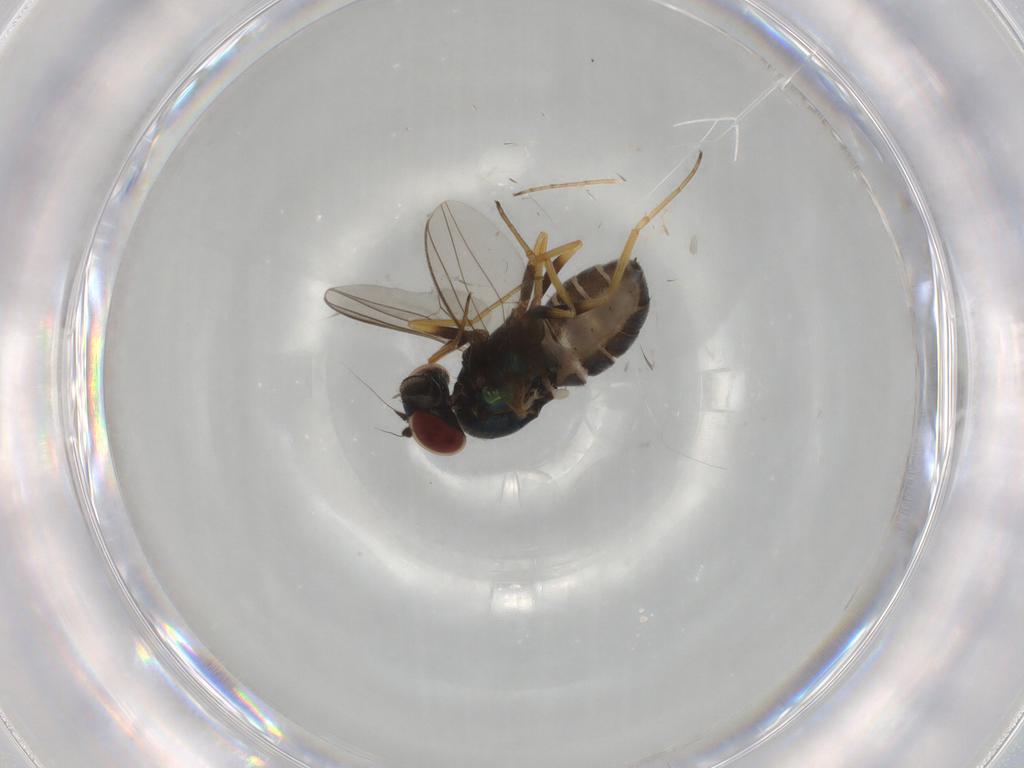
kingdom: Animalia
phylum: Arthropoda
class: Insecta
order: Diptera
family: Dolichopodidae
